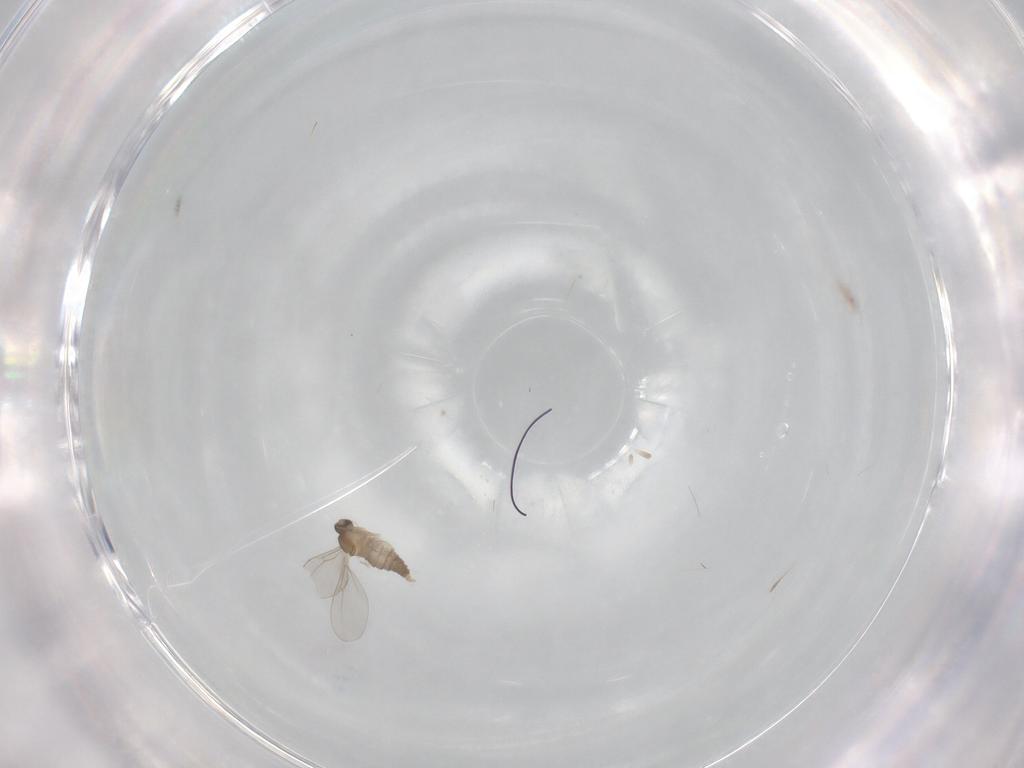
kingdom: Animalia
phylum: Arthropoda
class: Insecta
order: Diptera
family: Cecidomyiidae
